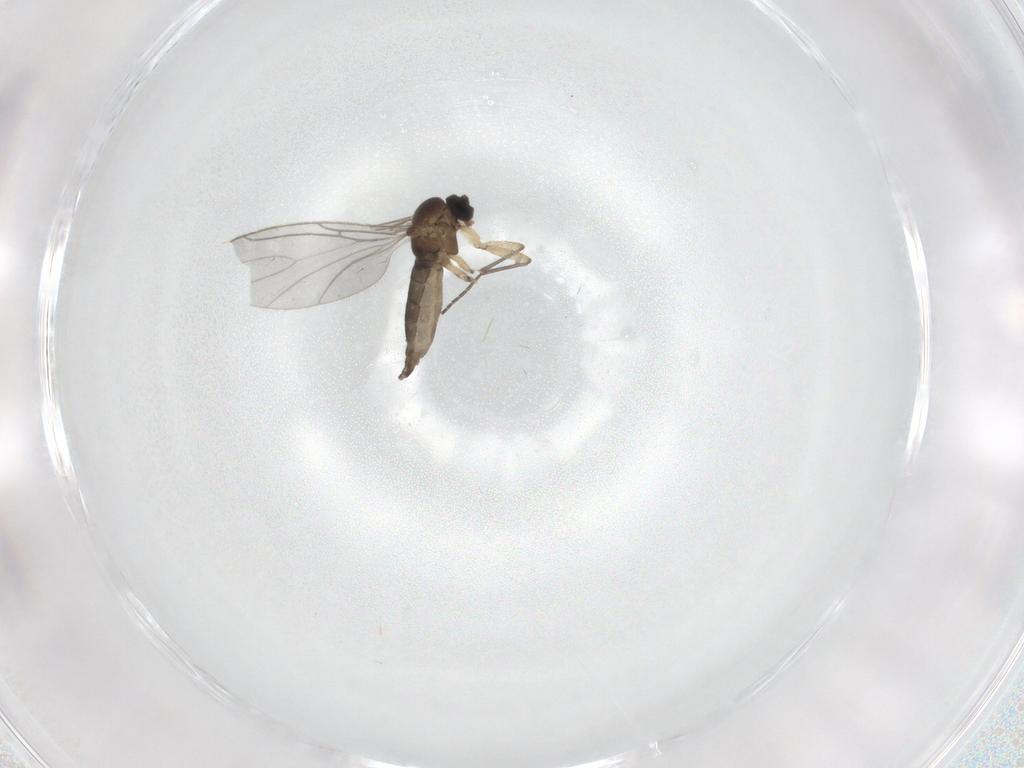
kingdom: Animalia
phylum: Arthropoda
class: Insecta
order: Diptera
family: Sciaridae
